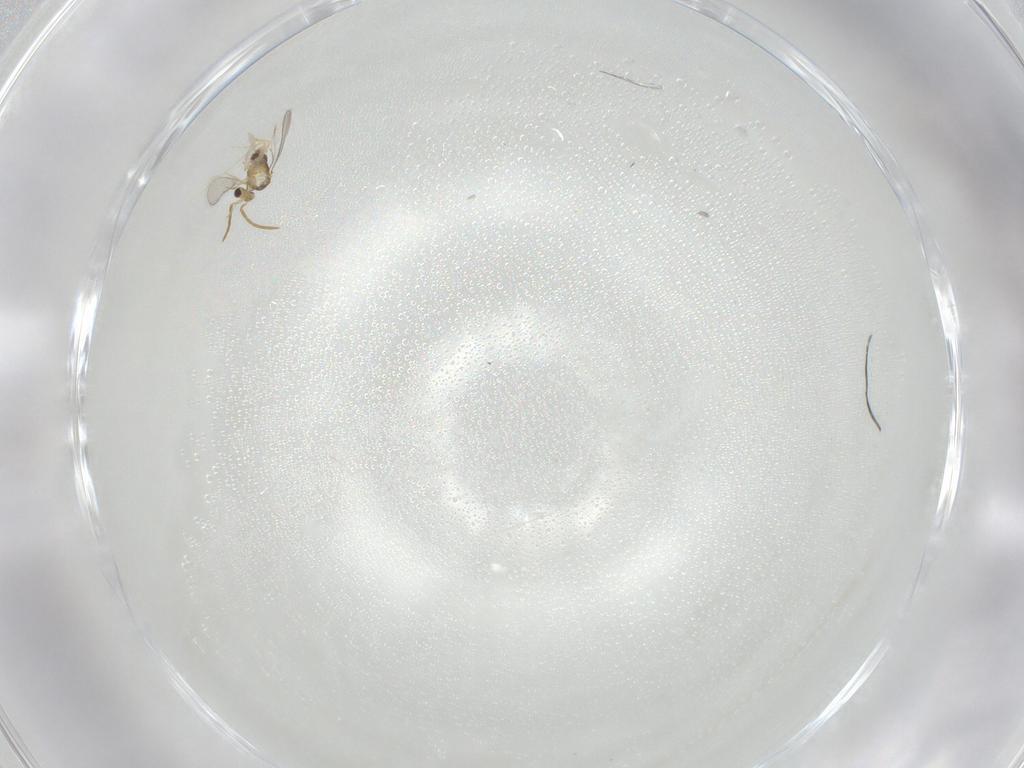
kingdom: Animalia
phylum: Arthropoda
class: Insecta
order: Hymenoptera
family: Aphelinidae
